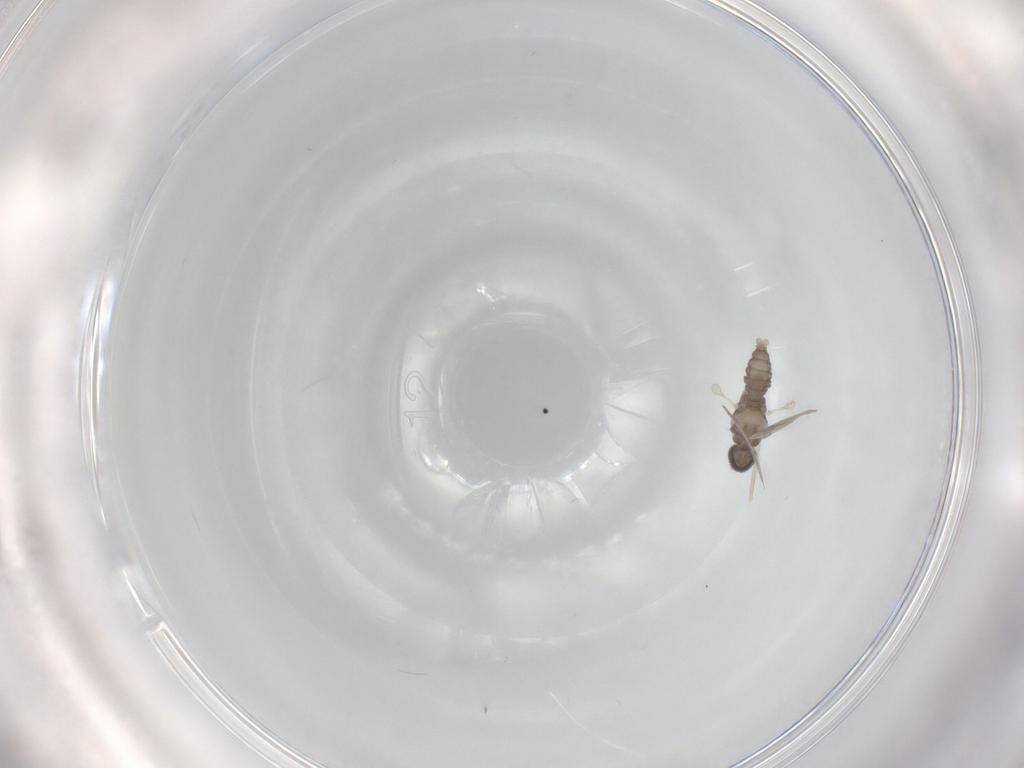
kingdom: Animalia
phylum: Arthropoda
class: Insecta
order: Diptera
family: Cecidomyiidae
